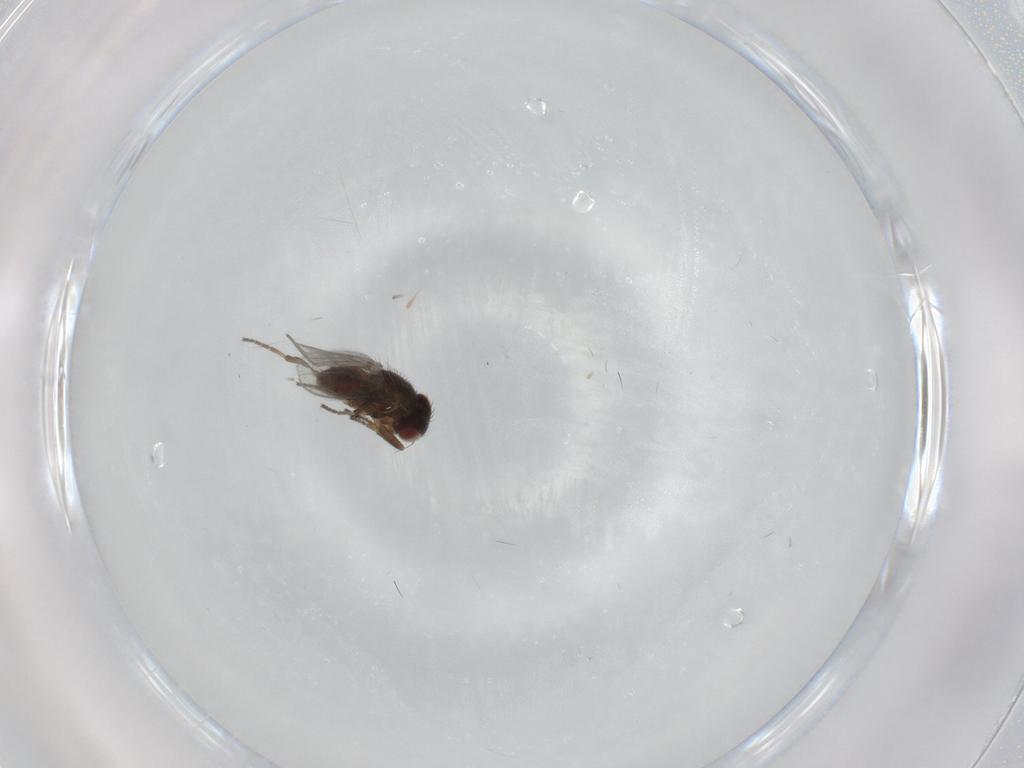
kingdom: Animalia
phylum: Arthropoda
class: Insecta
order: Diptera
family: Chloropidae
